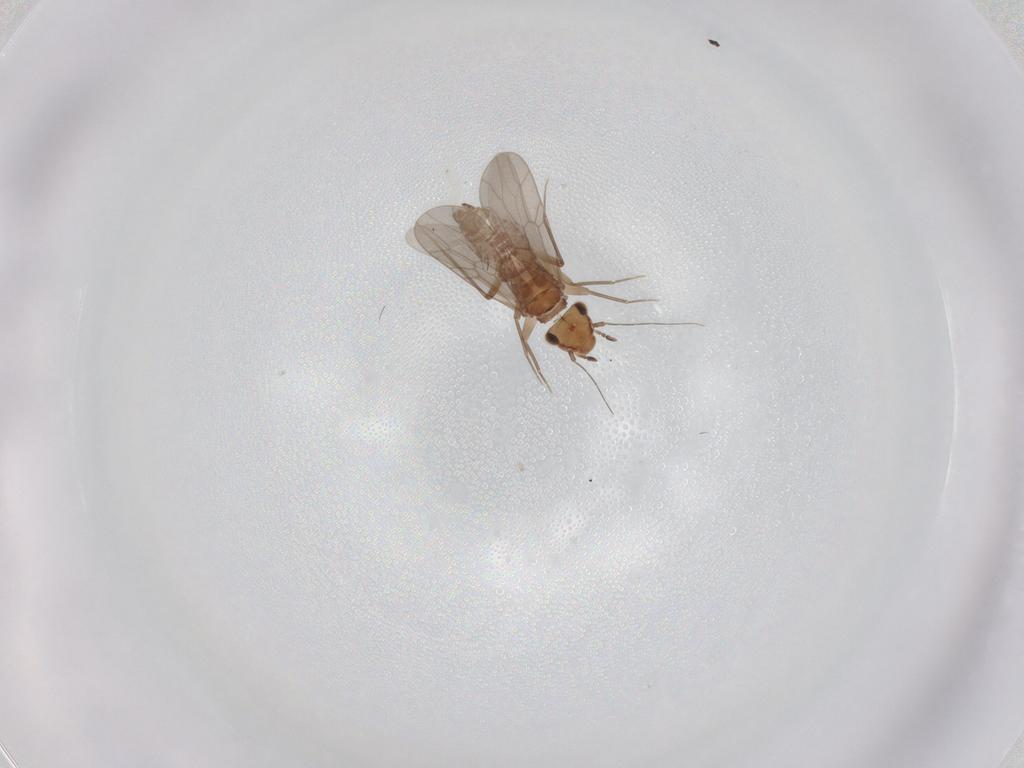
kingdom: Animalia
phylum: Arthropoda
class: Insecta
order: Psocodea
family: Lepidopsocidae
